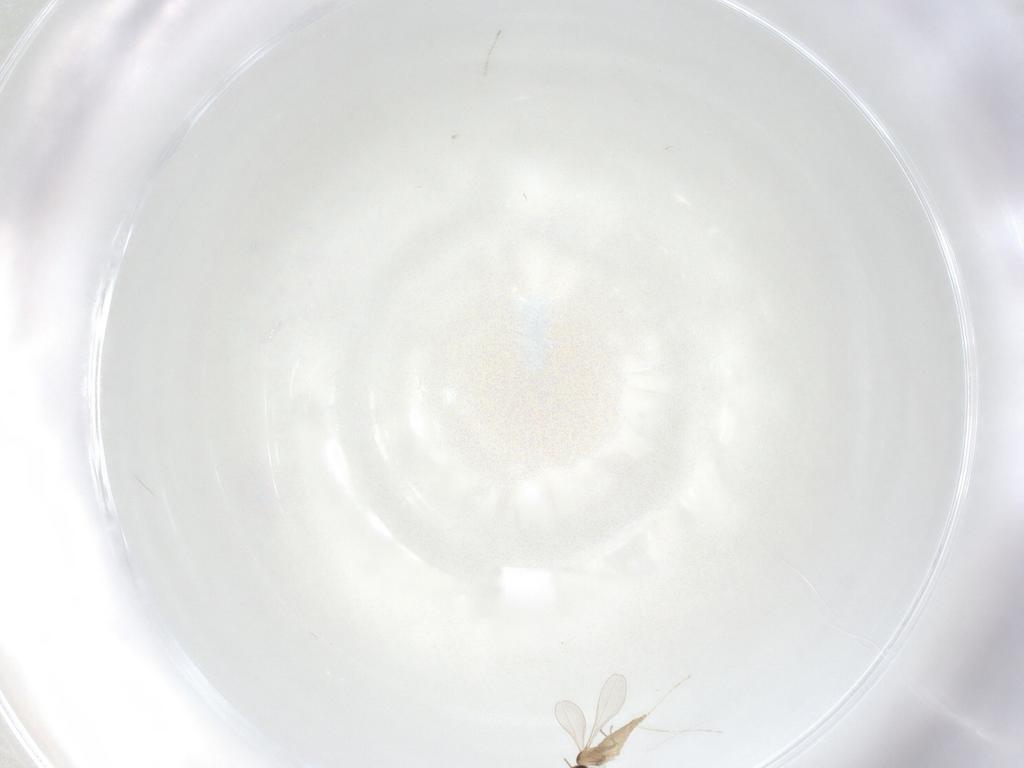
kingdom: Animalia
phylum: Arthropoda
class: Insecta
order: Diptera
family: Cecidomyiidae
